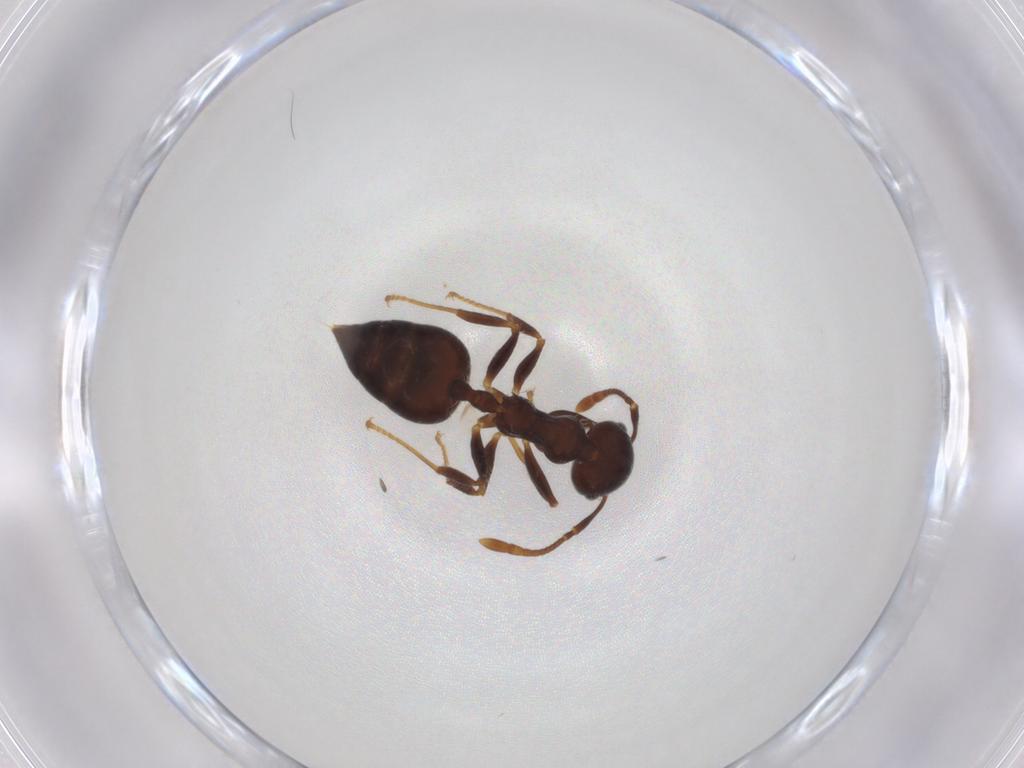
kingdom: Animalia
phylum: Arthropoda
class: Insecta
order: Hymenoptera
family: Formicidae
